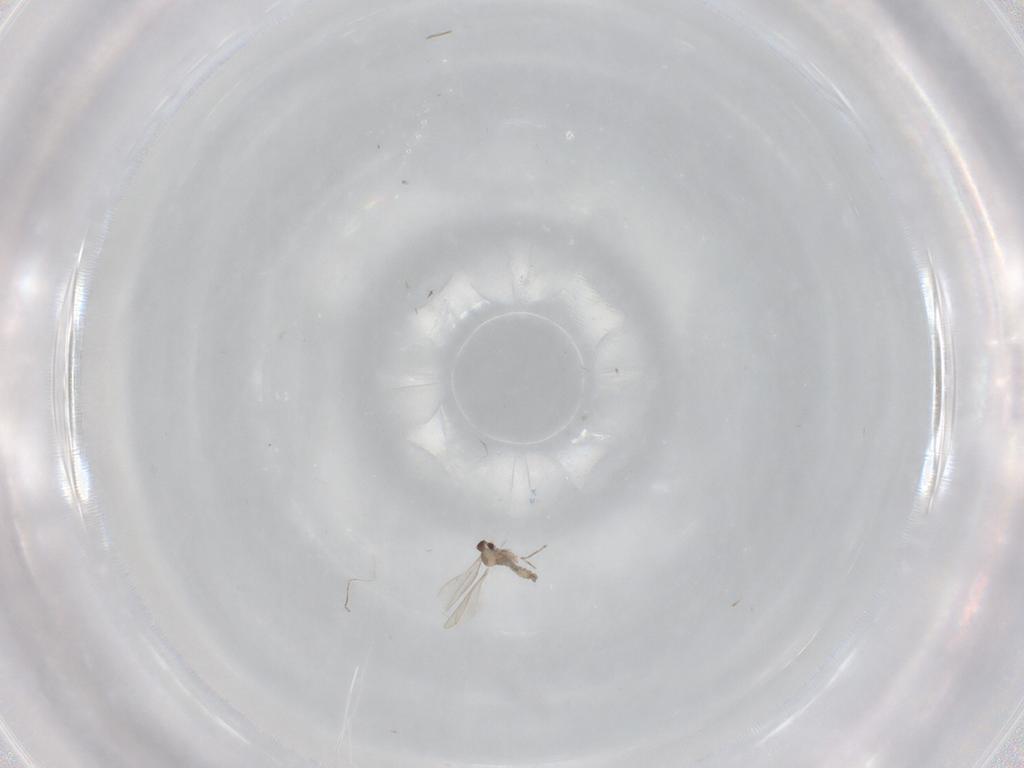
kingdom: Animalia
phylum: Arthropoda
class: Insecta
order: Diptera
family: Cecidomyiidae
